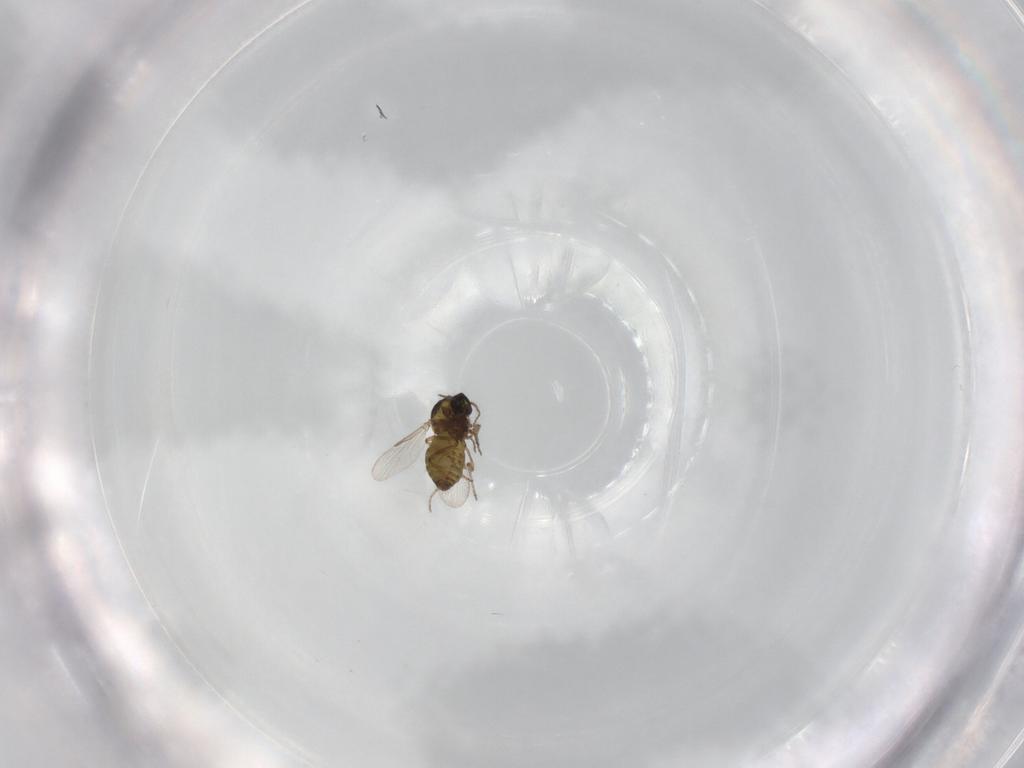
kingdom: Animalia
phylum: Arthropoda
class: Insecta
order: Diptera
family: Ceratopogonidae
